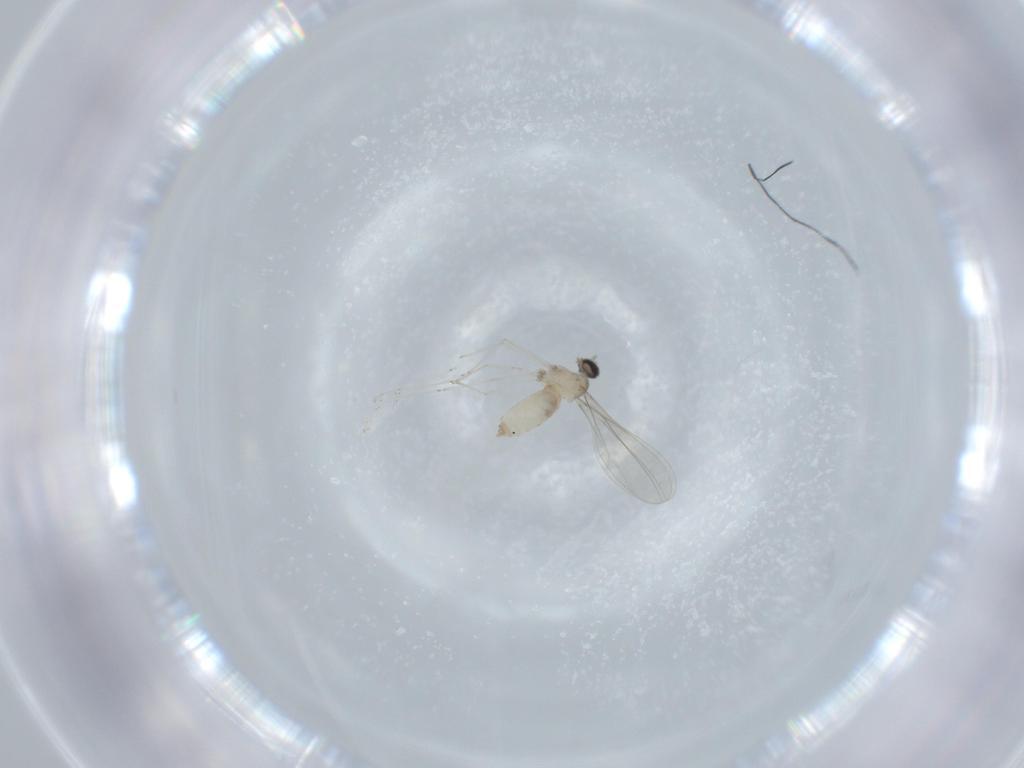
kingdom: Animalia
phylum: Arthropoda
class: Insecta
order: Diptera
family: Cecidomyiidae
